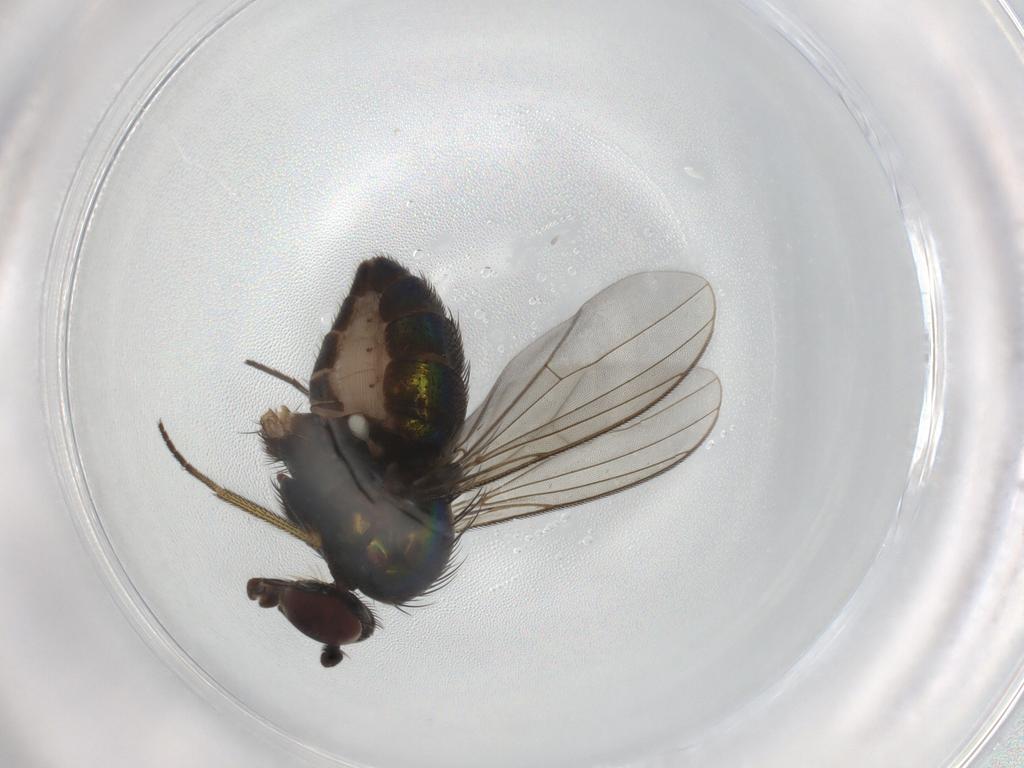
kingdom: Animalia
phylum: Arthropoda
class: Insecta
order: Diptera
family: Dolichopodidae
